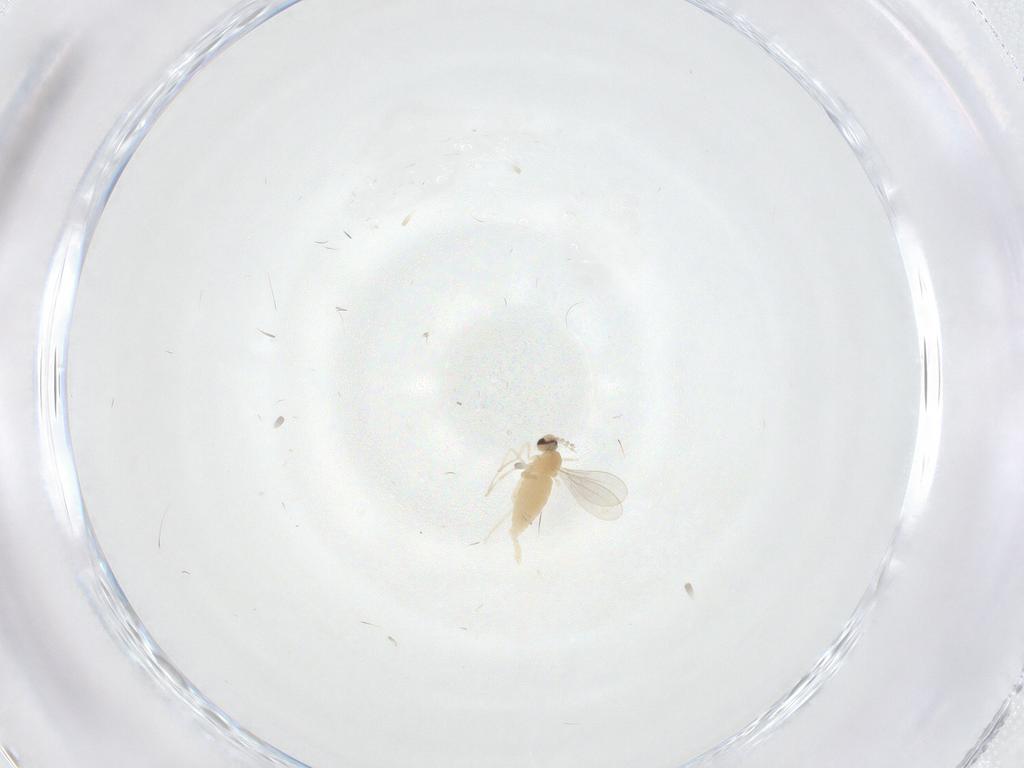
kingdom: Animalia
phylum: Arthropoda
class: Insecta
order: Diptera
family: Cecidomyiidae
